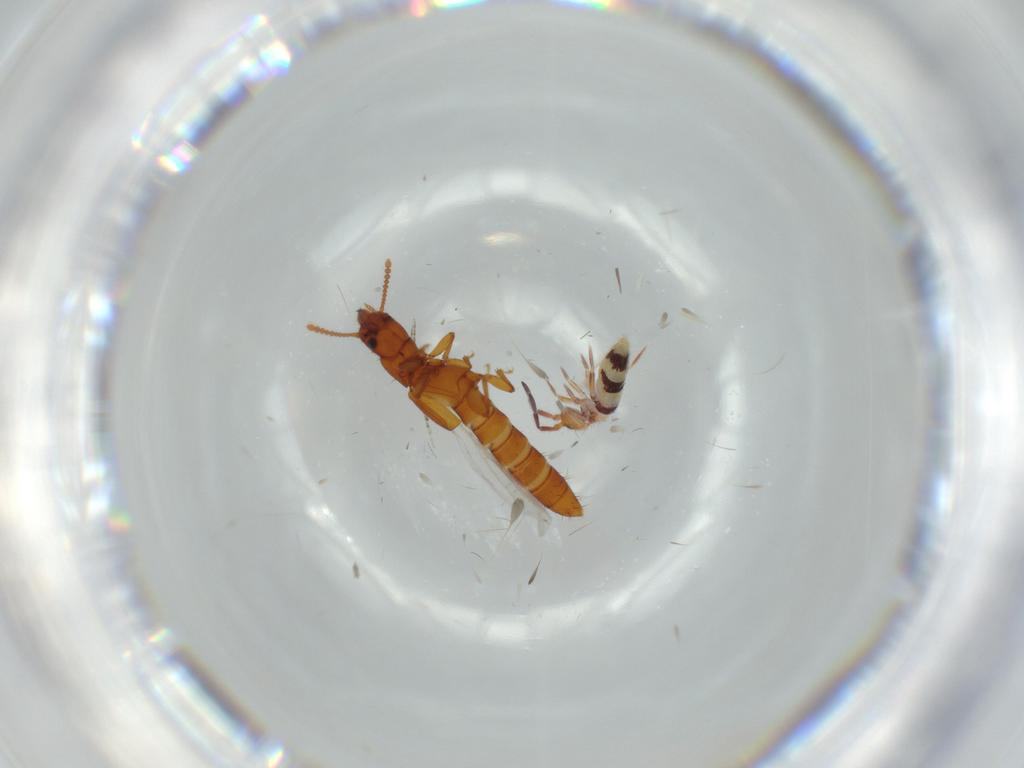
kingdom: Animalia
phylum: Arthropoda
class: Collembola
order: Entomobryomorpha
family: Entomobryidae
